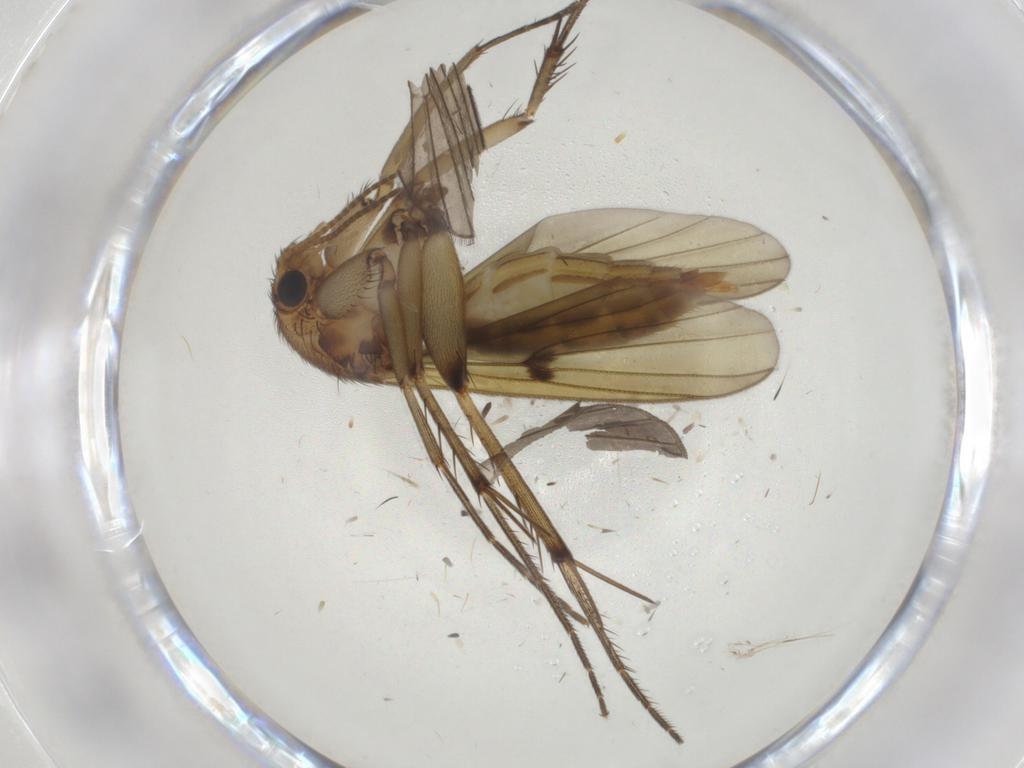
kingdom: Animalia
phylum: Arthropoda
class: Insecta
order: Diptera
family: Mycetophilidae
